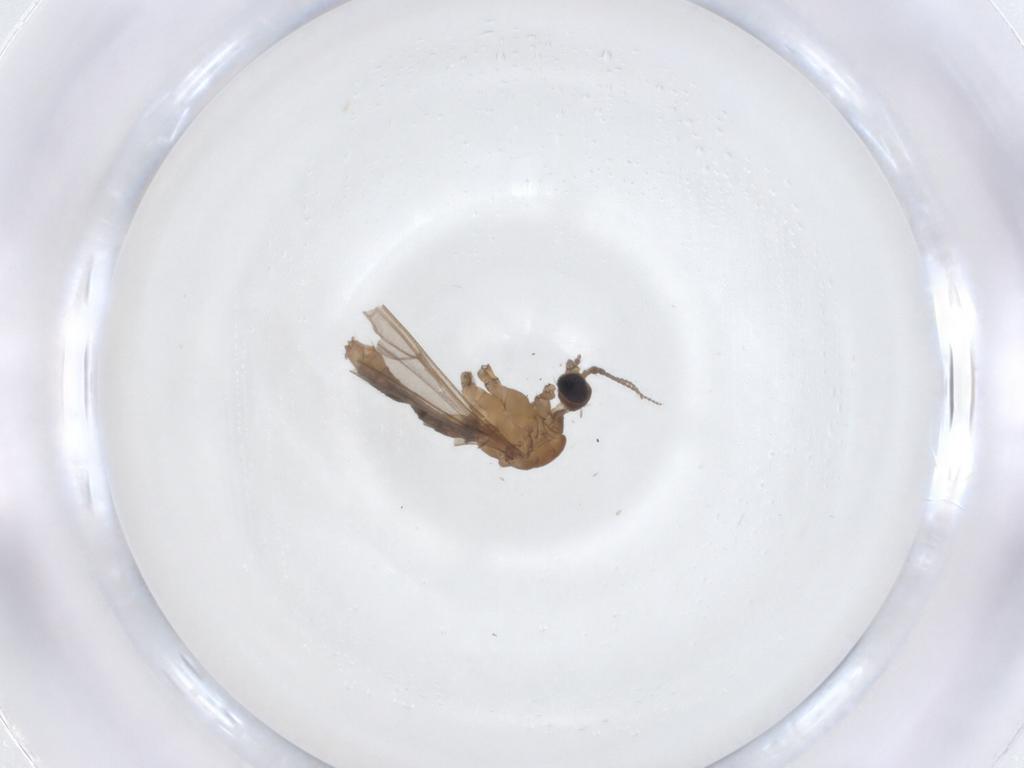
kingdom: Animalia
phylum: Arthropoda
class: Insecta
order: Diptera
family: Limoniidae
